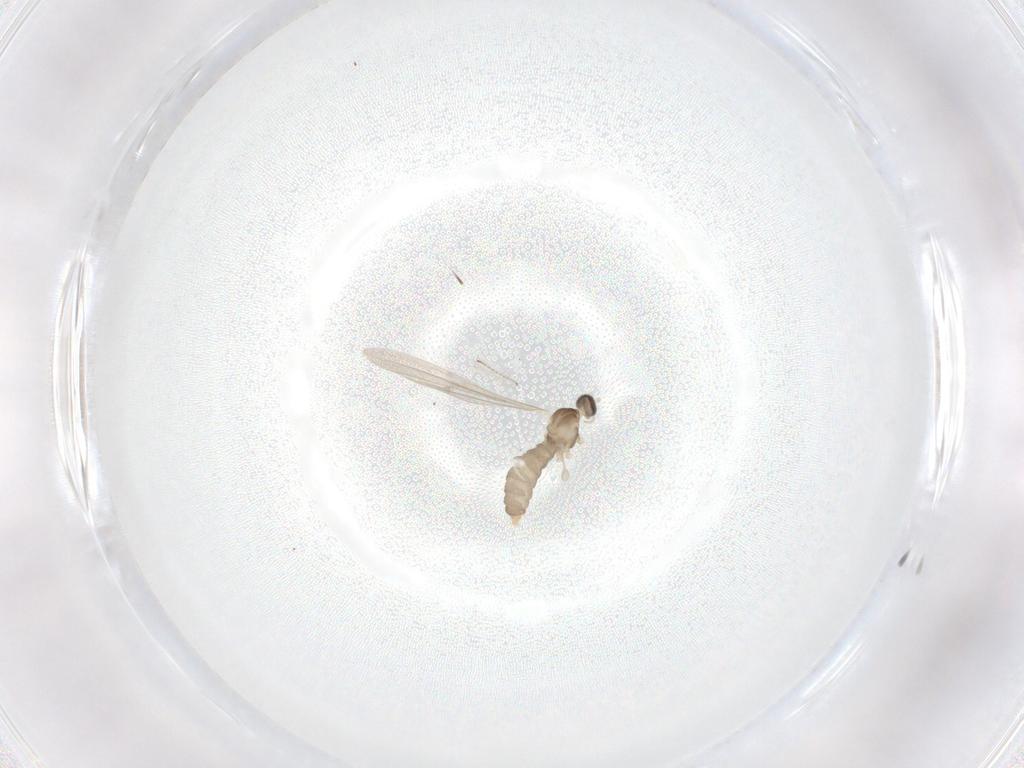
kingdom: Animalia
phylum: Arthropoda
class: Insecta
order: Diptera
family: Cecidomyiidae
